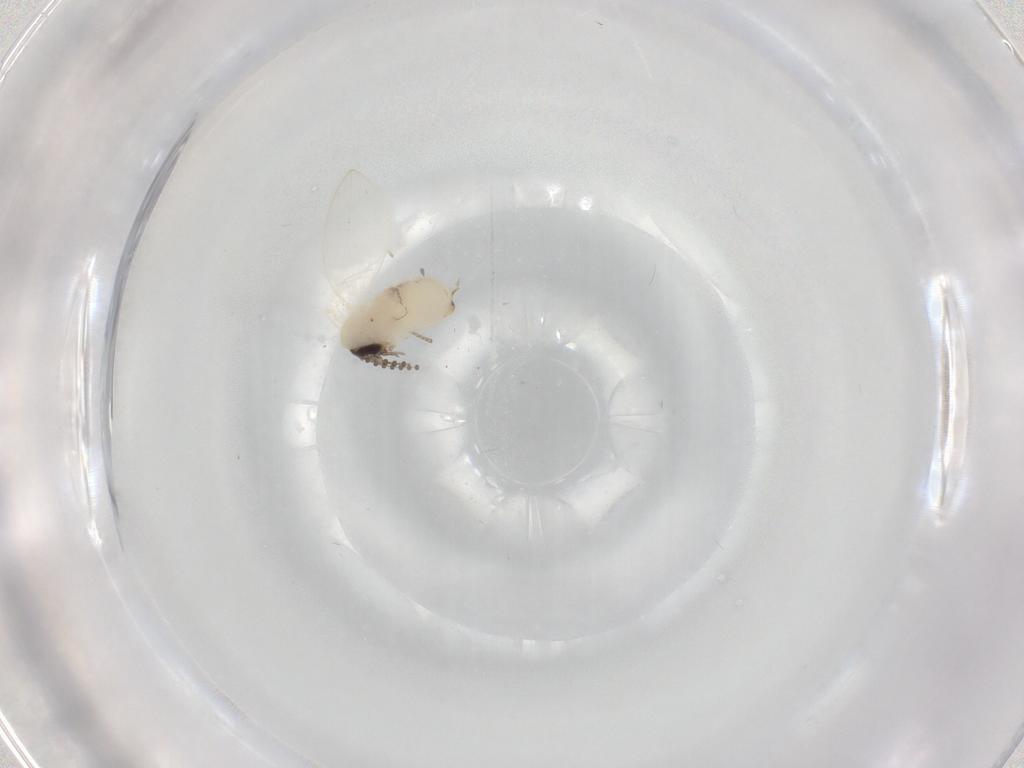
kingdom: Animalia
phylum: Arthropoda
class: Insecta
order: Diptera
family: Psychodidae
